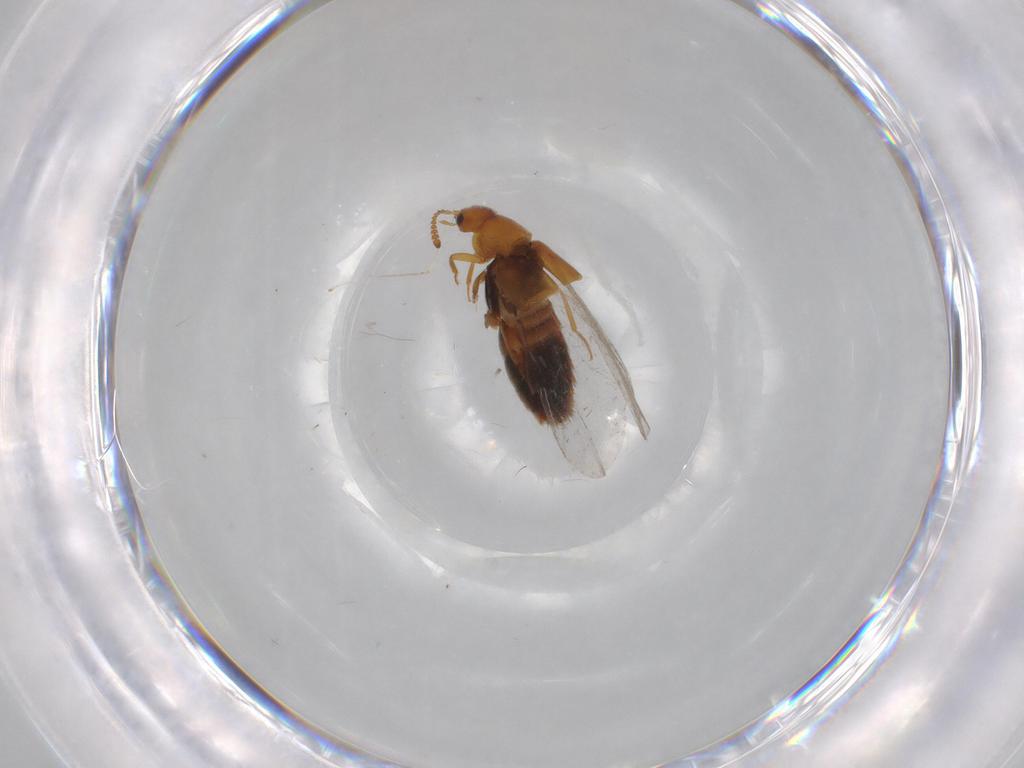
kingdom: Animalia
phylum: Arthropoda
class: Insecta
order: Coleoptera
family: Staphylinidae
